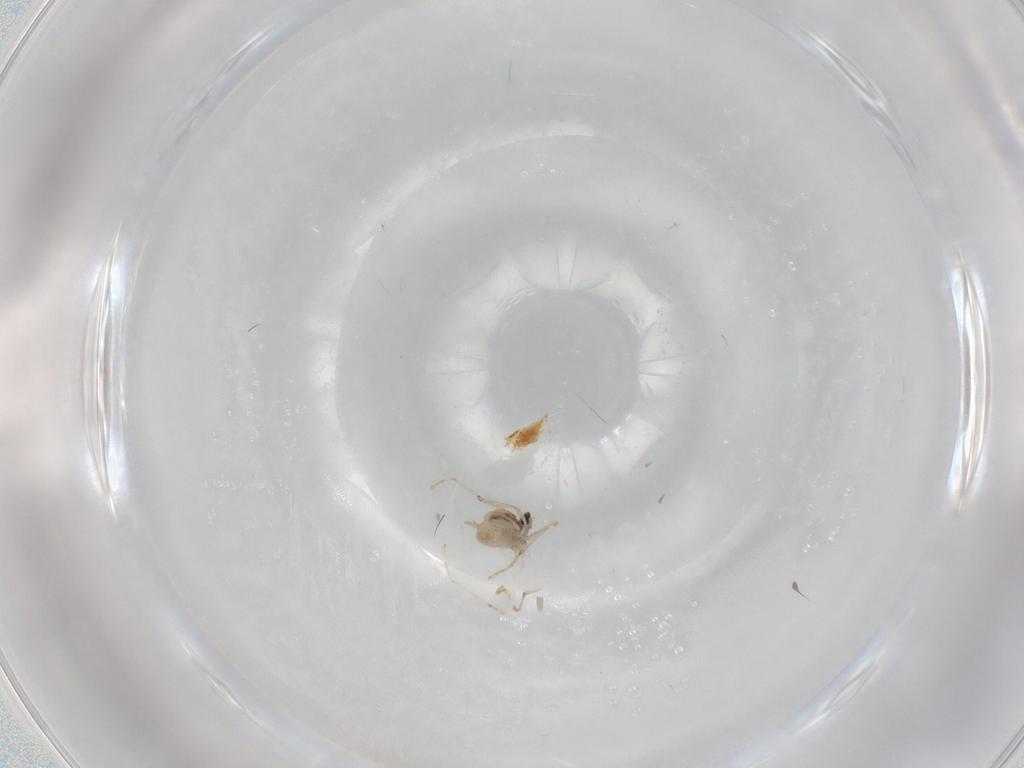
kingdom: Animalia
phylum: Arthropoda
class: Insecta
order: Diptera
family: Cecidomyiidae
